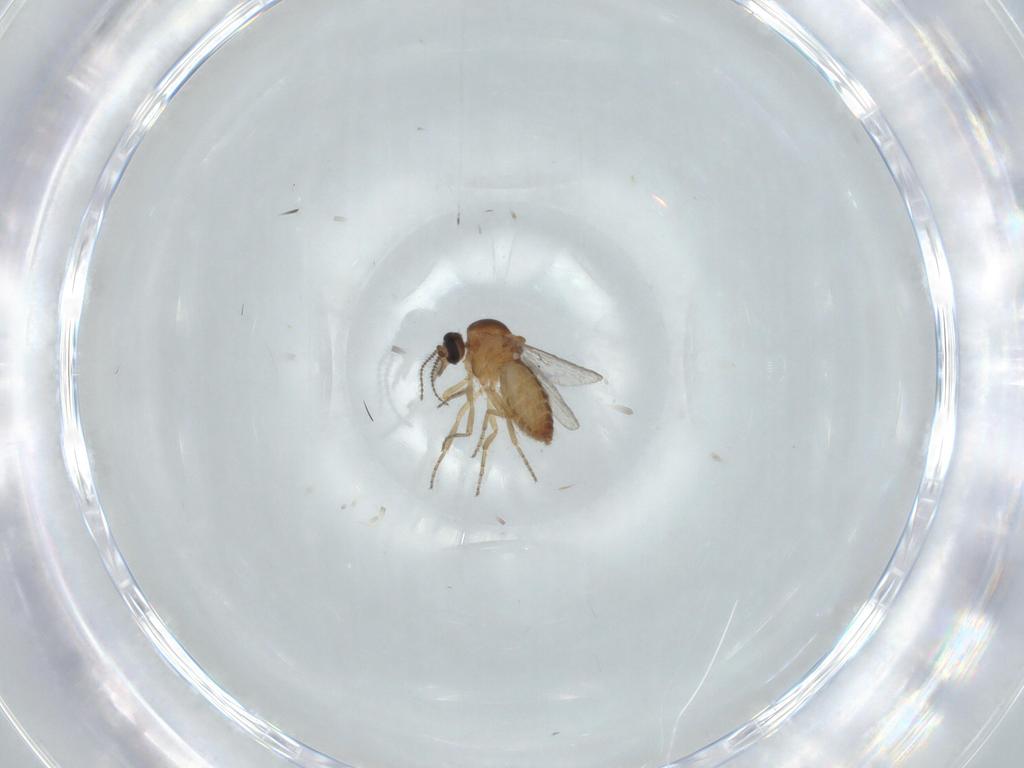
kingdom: Animalia
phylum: Arthropoda
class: Insecta
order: Diptera
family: Ceratopogonidae
